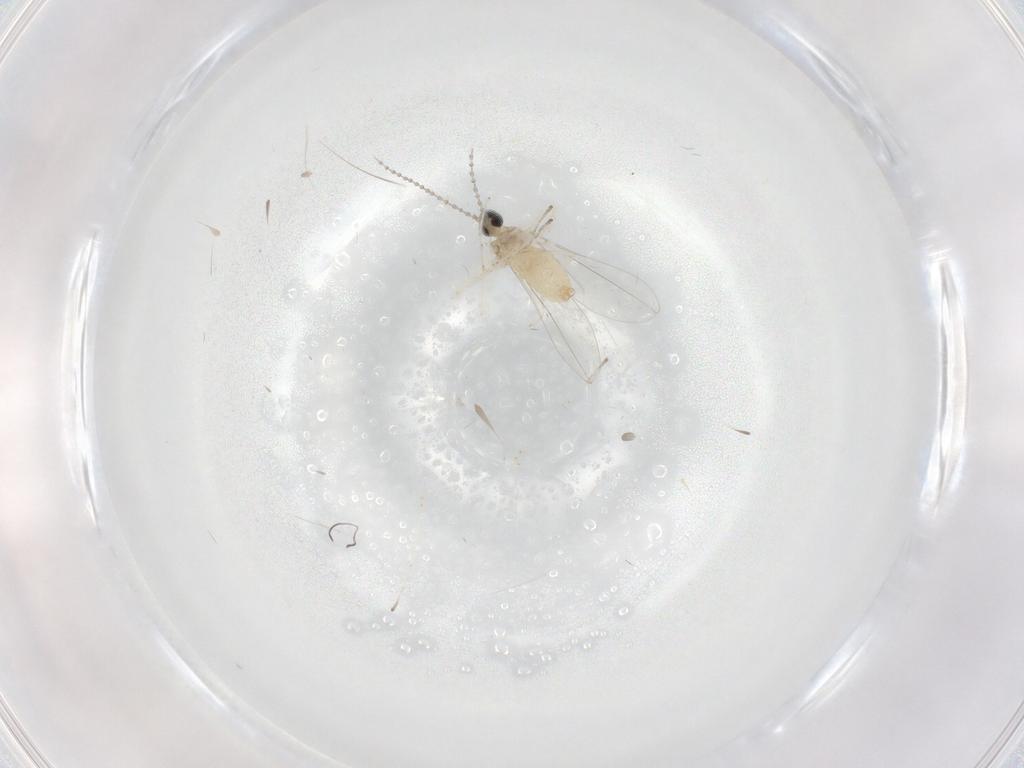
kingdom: Animalia
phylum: Arthropoda
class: Insecta
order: Diptera
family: Cecidomyiidae
